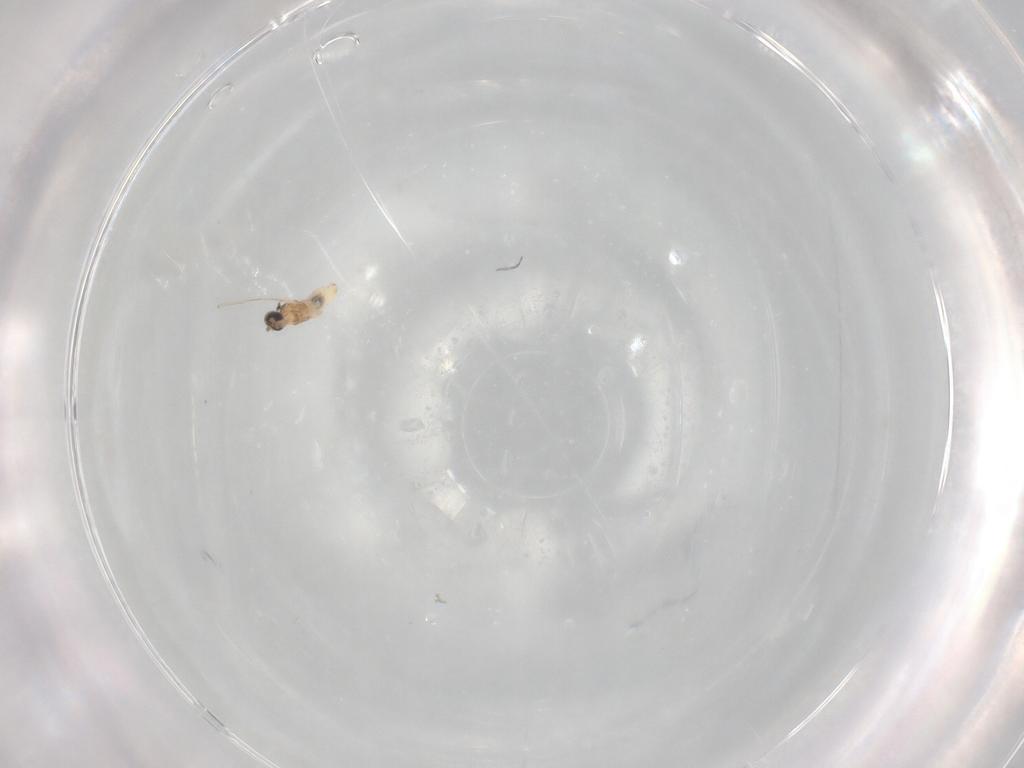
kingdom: Animalia
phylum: Arthropoda
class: Insecta
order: Diptera
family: Cecidomyiidae
